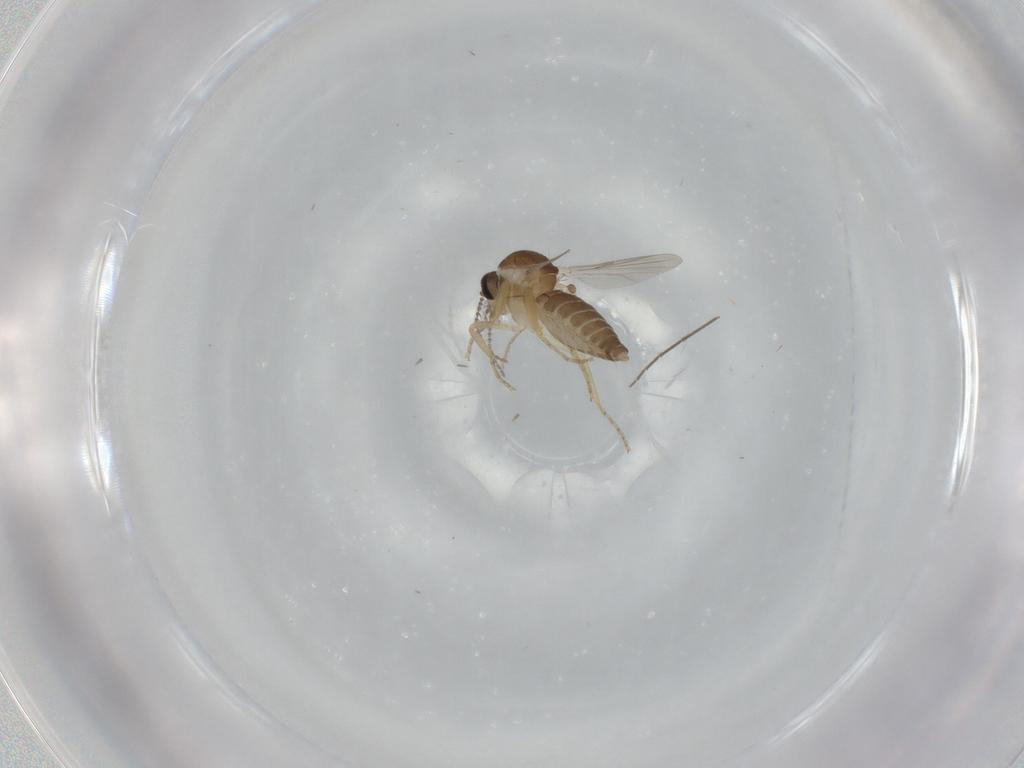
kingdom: Animalia
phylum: Arthropoda
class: Insecta
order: Diptera
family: Ceratopogonidae
